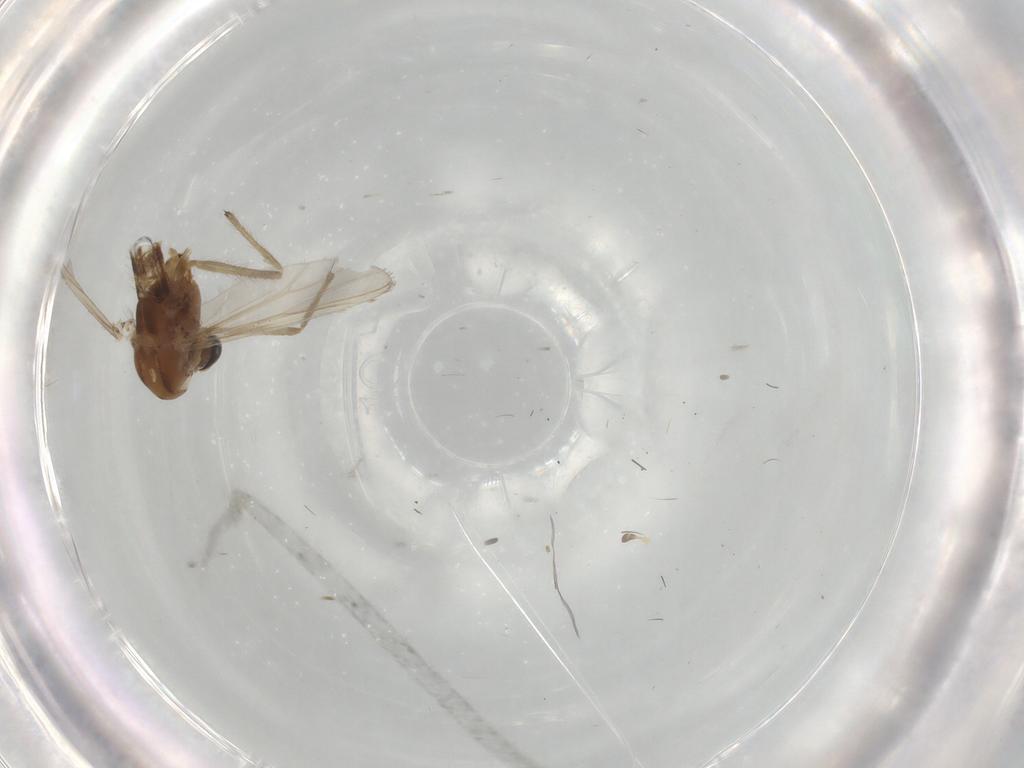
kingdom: Animalia
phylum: Arthropoda
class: Insecta
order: Diptera
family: Chironomidae
